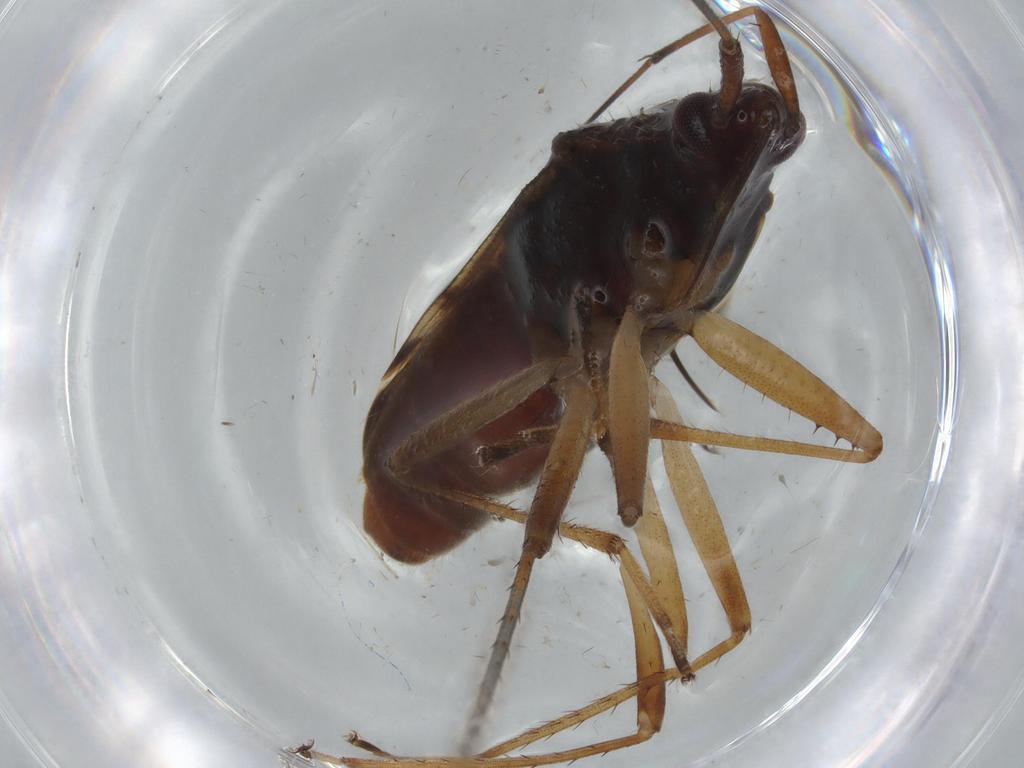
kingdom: Animalia
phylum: Arthropoda
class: Insecta
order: Hemiptera
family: Rhyparochromidae
